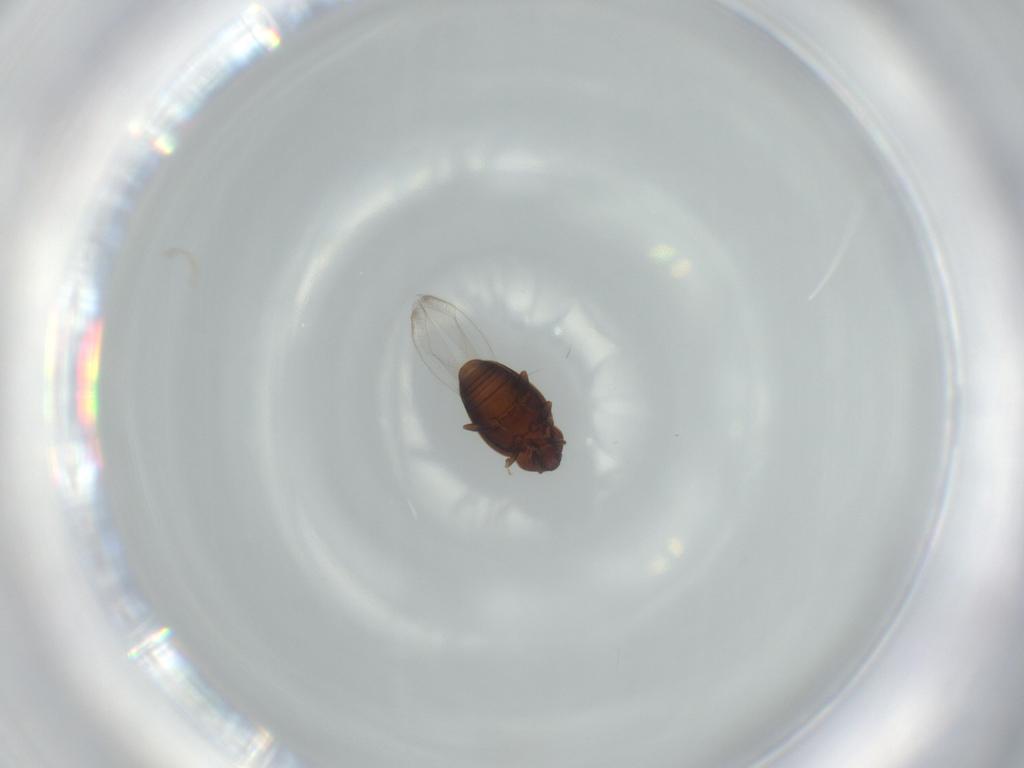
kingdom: Animalia
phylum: Arthropoda
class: Insecta
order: Coleoptera
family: Corylophidae
